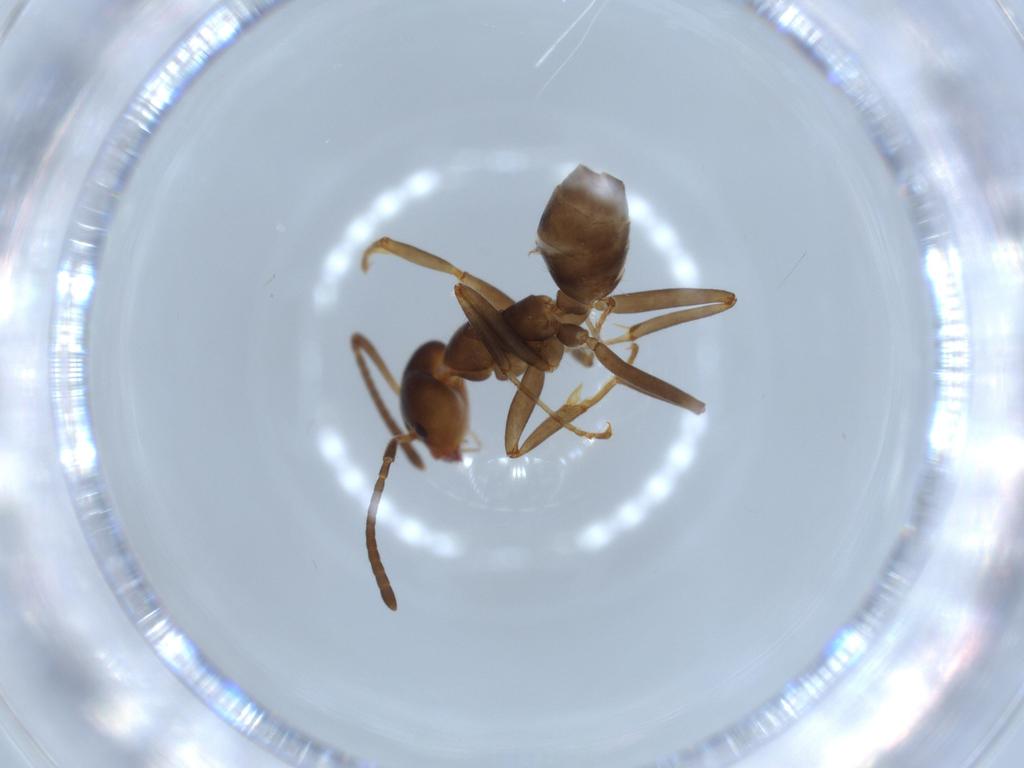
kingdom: Animalia
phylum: Arthropoda
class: Insecta
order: Hymenoptera
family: Formicidae
